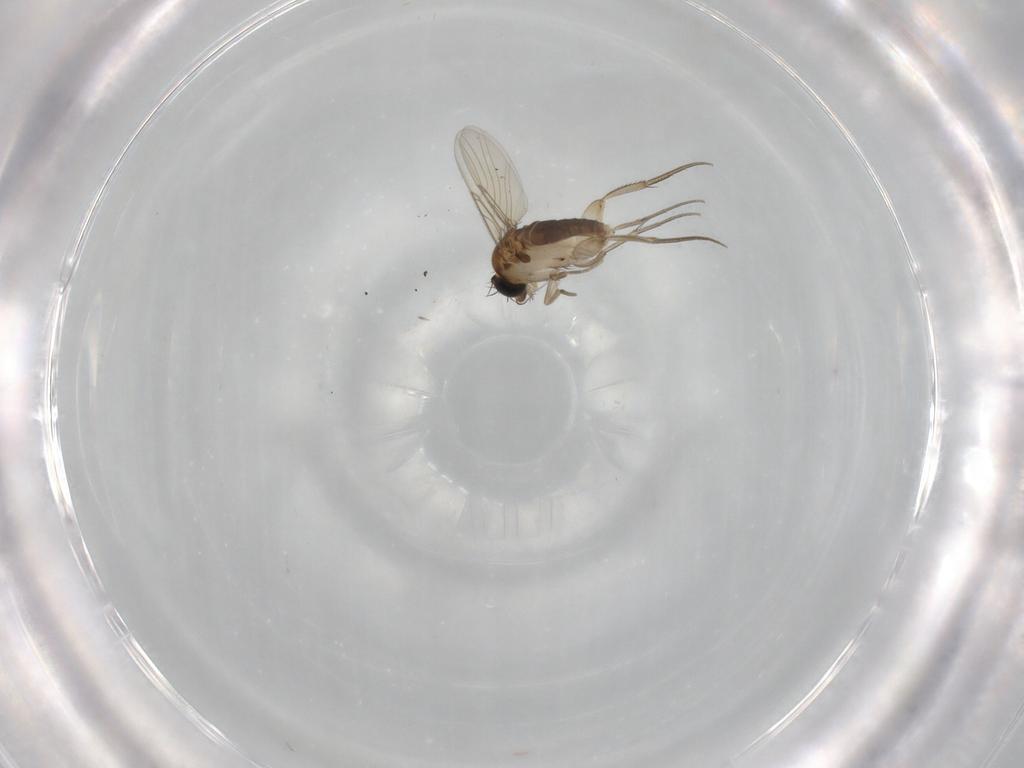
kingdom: Animalia
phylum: Arthropoda
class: Insecta
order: Diptera
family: Phoridae
